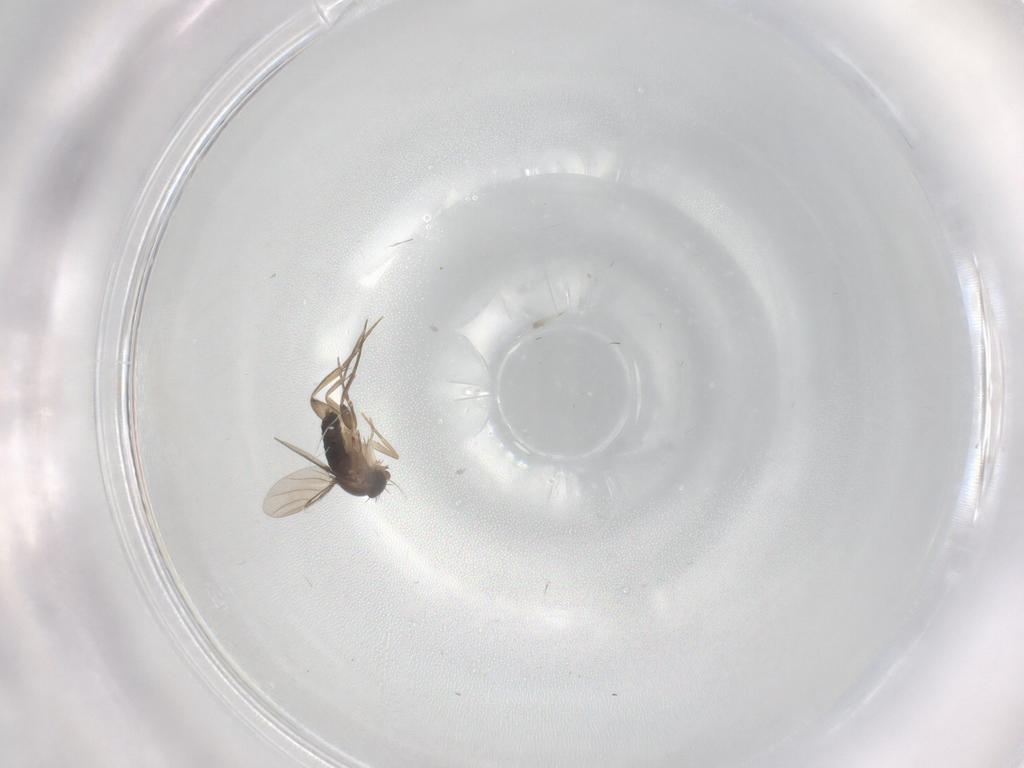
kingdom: Animalia
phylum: Arthropoda
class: Insecta
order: Diptera
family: Phoridae
